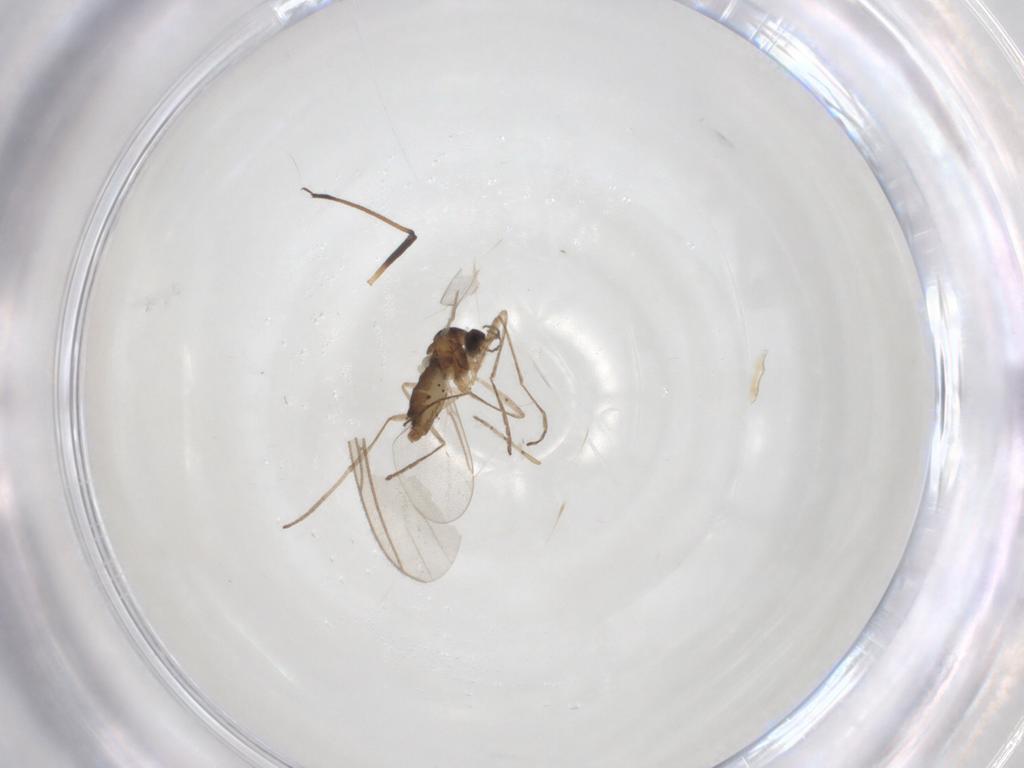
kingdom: Animalia
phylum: Arthropoda
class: Insecta
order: Diptera
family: Cecidomyiidae
